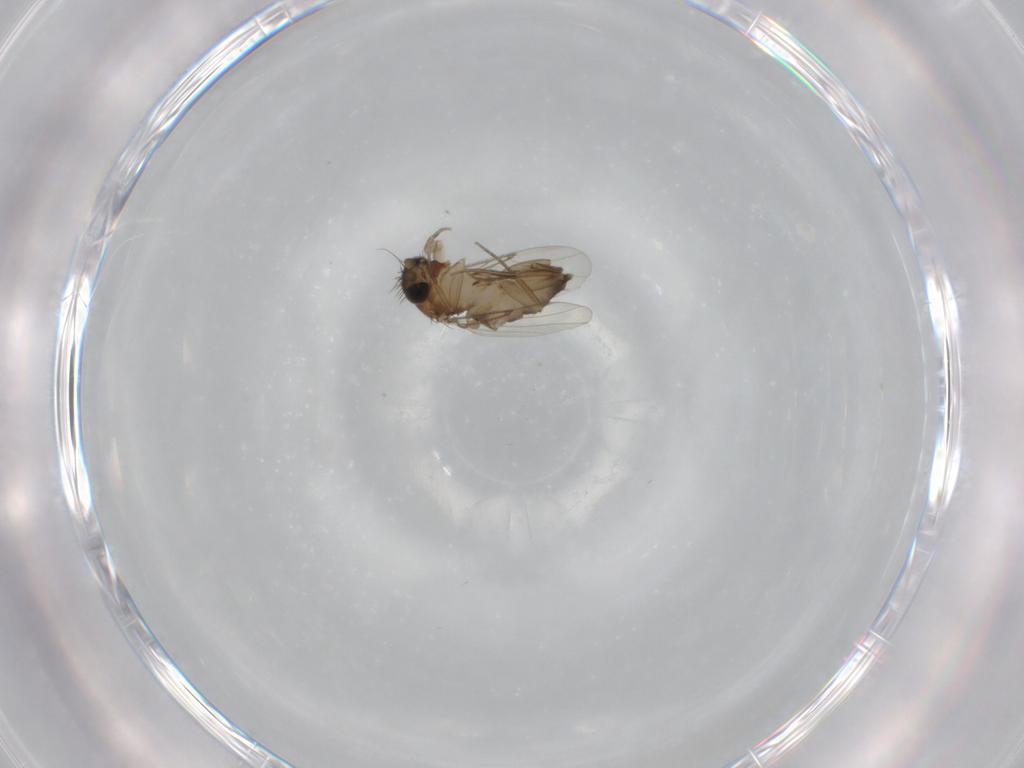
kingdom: Animalia
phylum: Arthropoda
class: Insecta
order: Diptera
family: Phoridae
